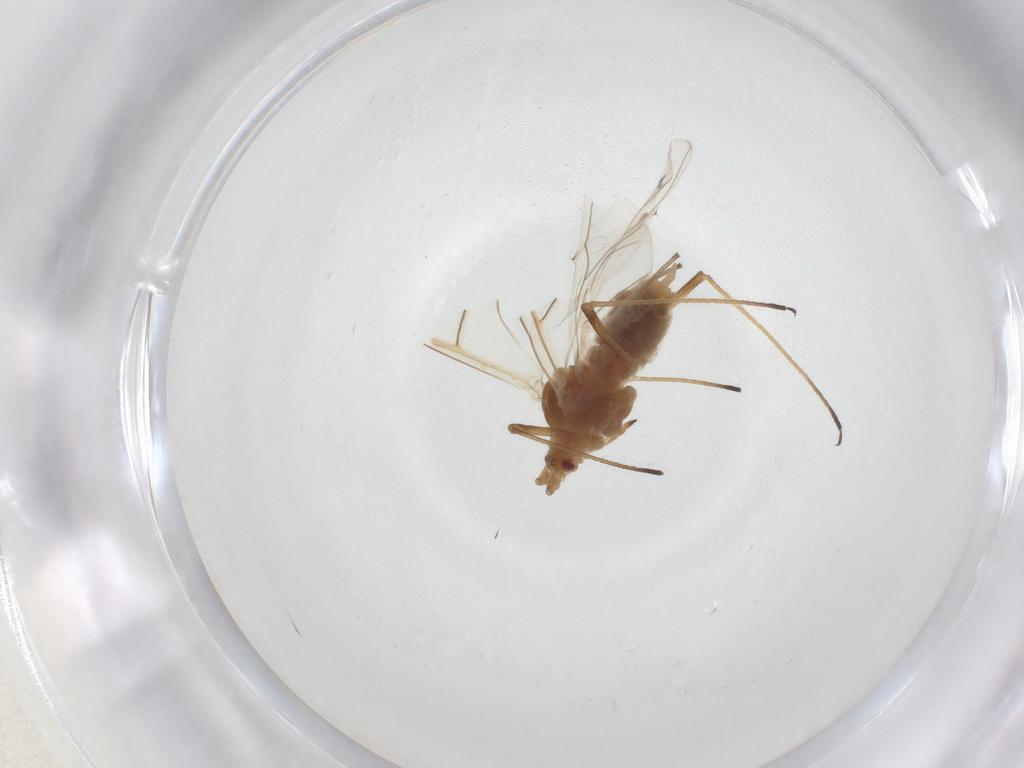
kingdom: Animalia
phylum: Arthropoda
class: Insecta
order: Hemiptera
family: Aphididae
